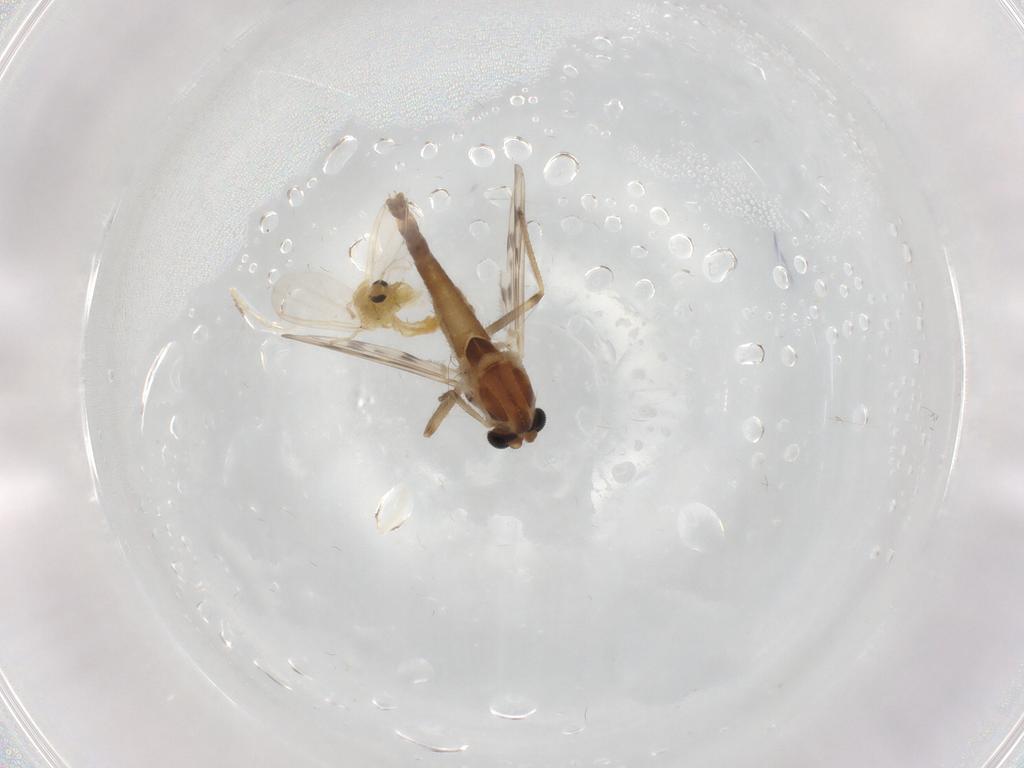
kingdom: Animalia
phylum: Arthropoda
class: Insecta
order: Diptera
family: Chironomidae
